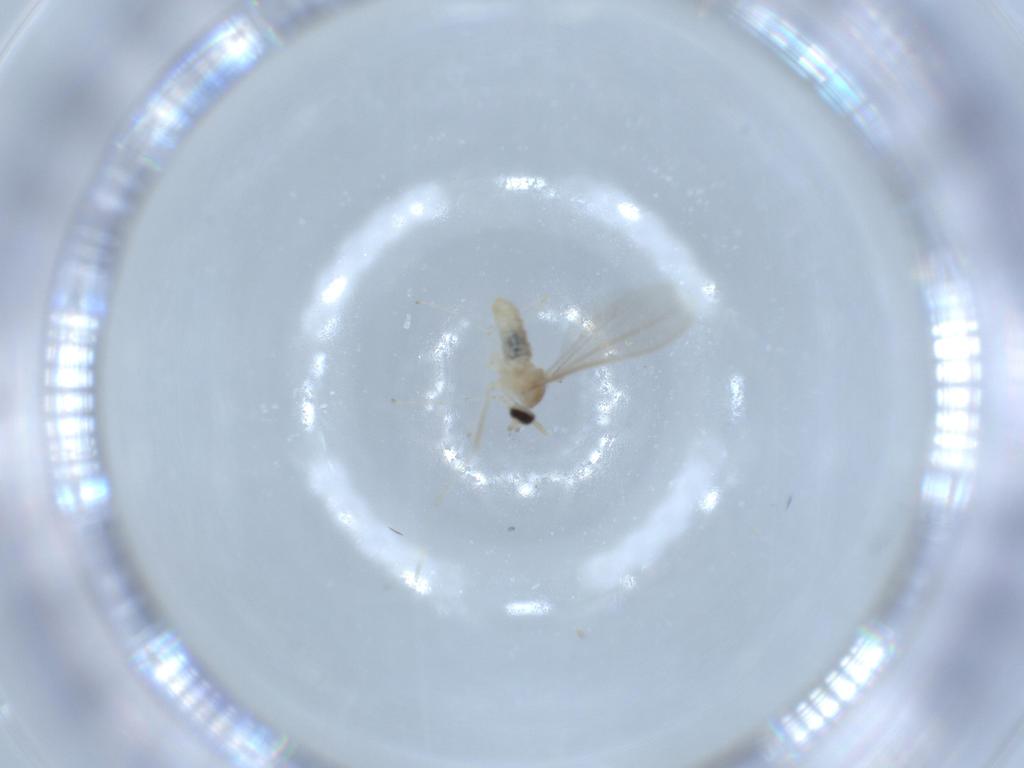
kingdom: Animalia
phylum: Arthropoda
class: Insecta
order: Diptera
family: Cecidomyiidae
